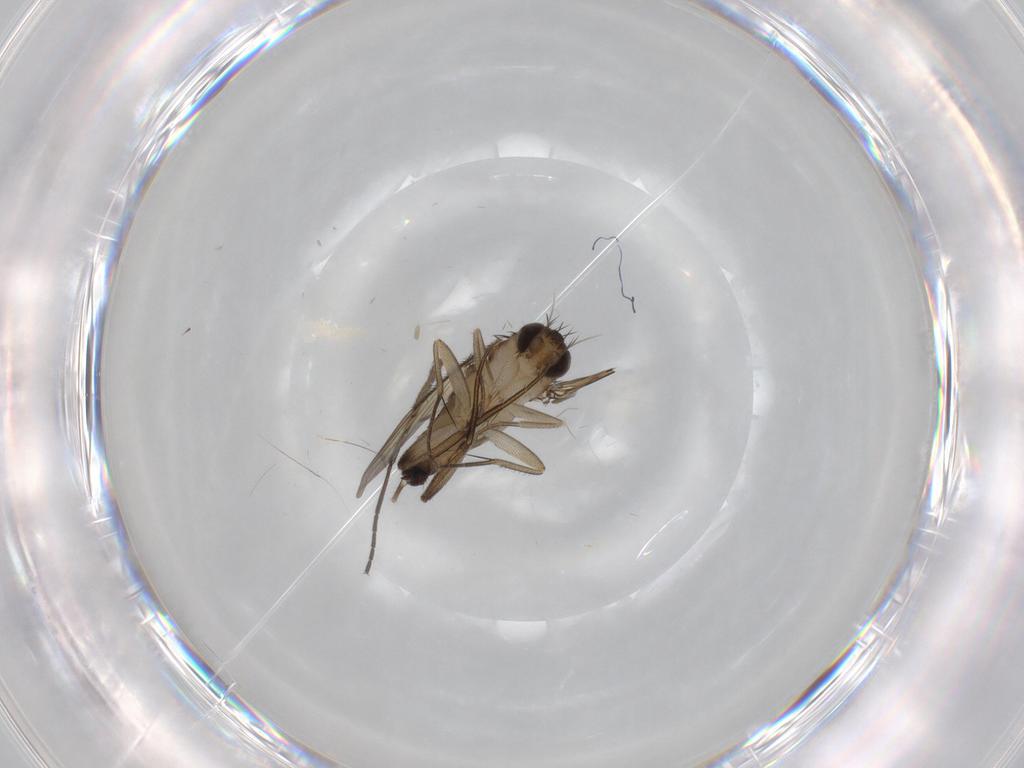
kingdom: Animalia
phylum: Arthropoda
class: Insecta
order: Diptera
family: Phoridae
